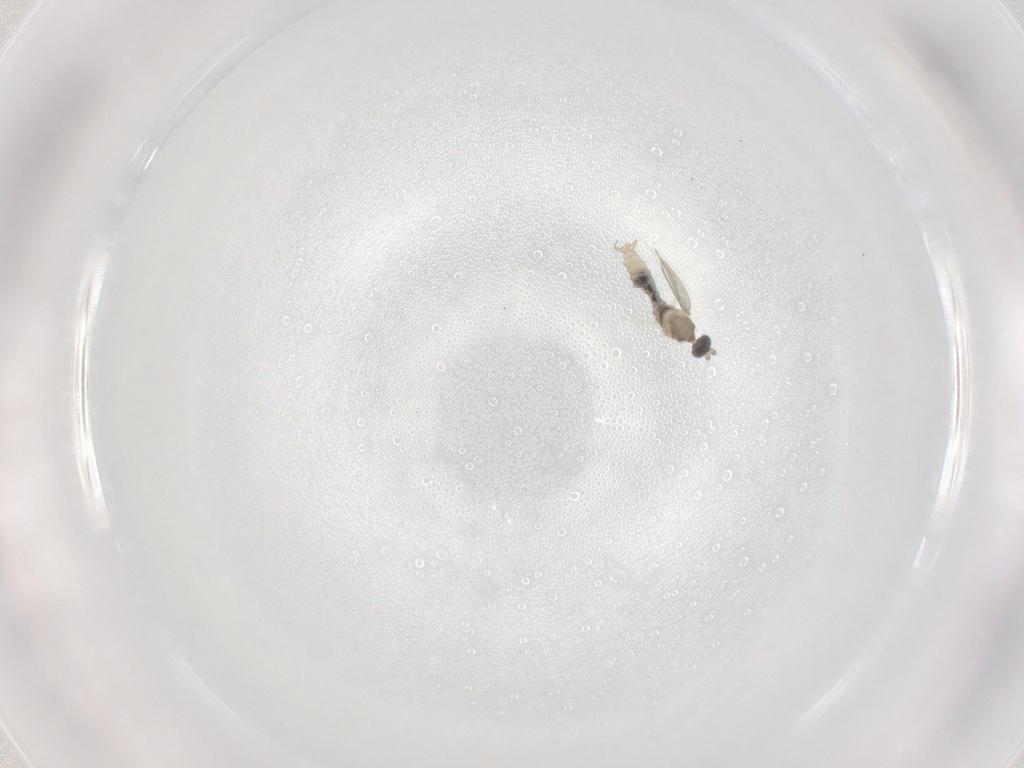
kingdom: Animalia
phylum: Arthropoda
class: Insecta
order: Diptera
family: Cecidomyiidae
